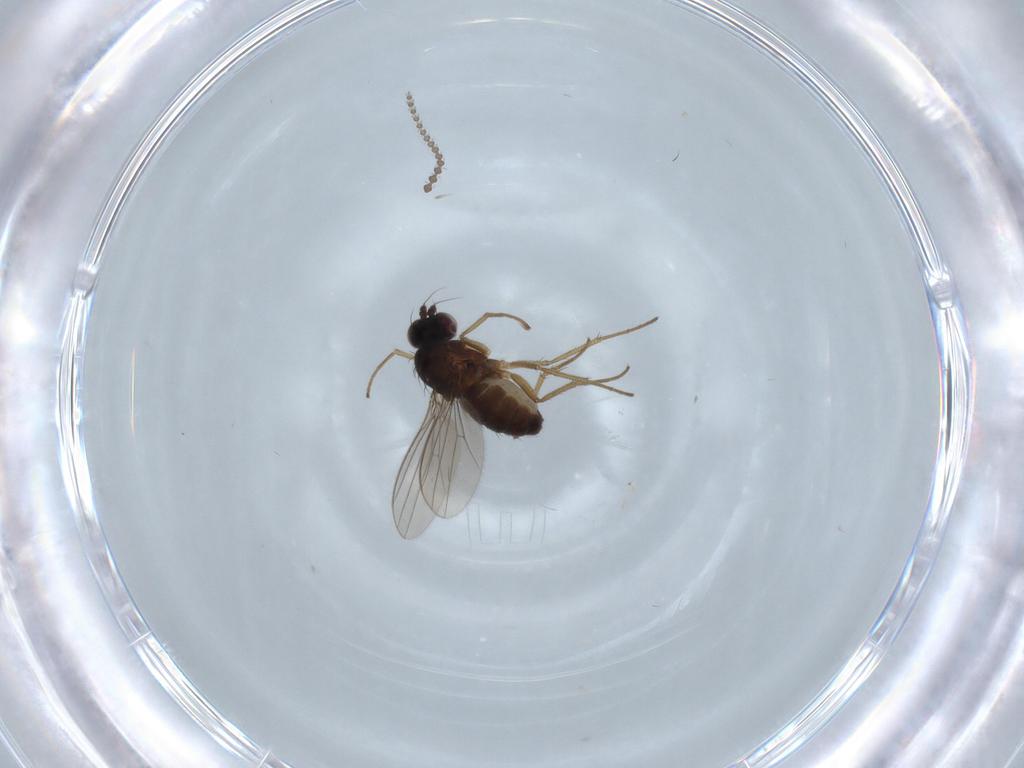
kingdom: Animalia
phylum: Arthropoda
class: Insecta
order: Diptera
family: Dolichopodidae
